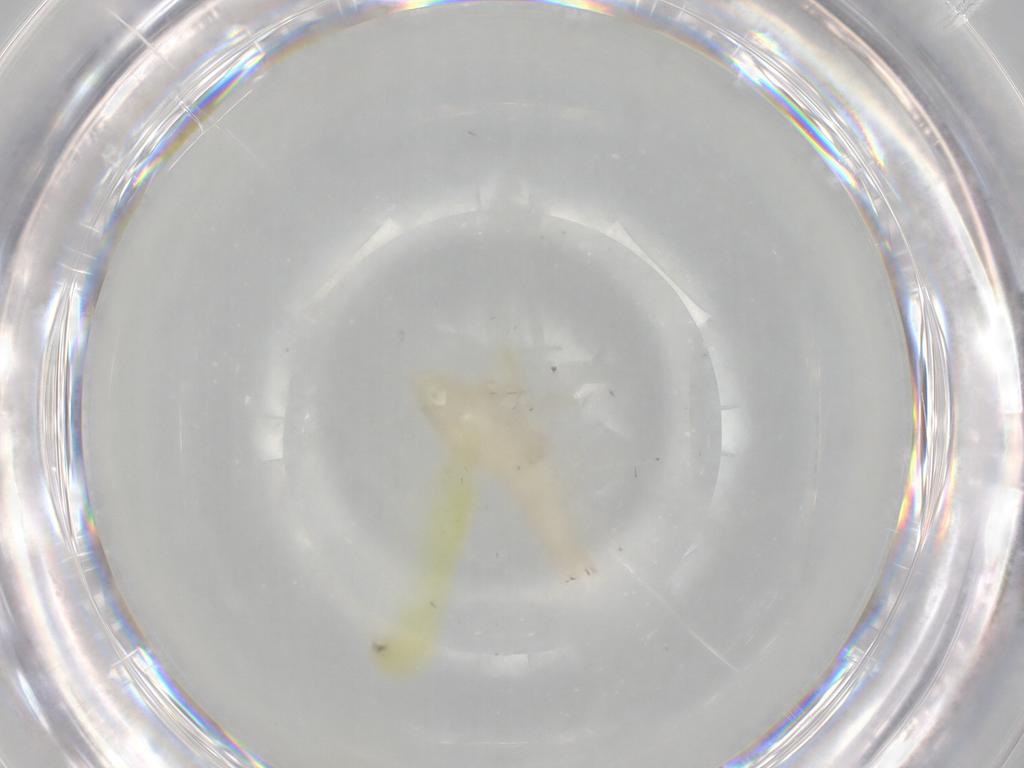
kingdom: Animalia
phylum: Arthropoda
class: Insecta
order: Hemiptera
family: Cicadellidae
